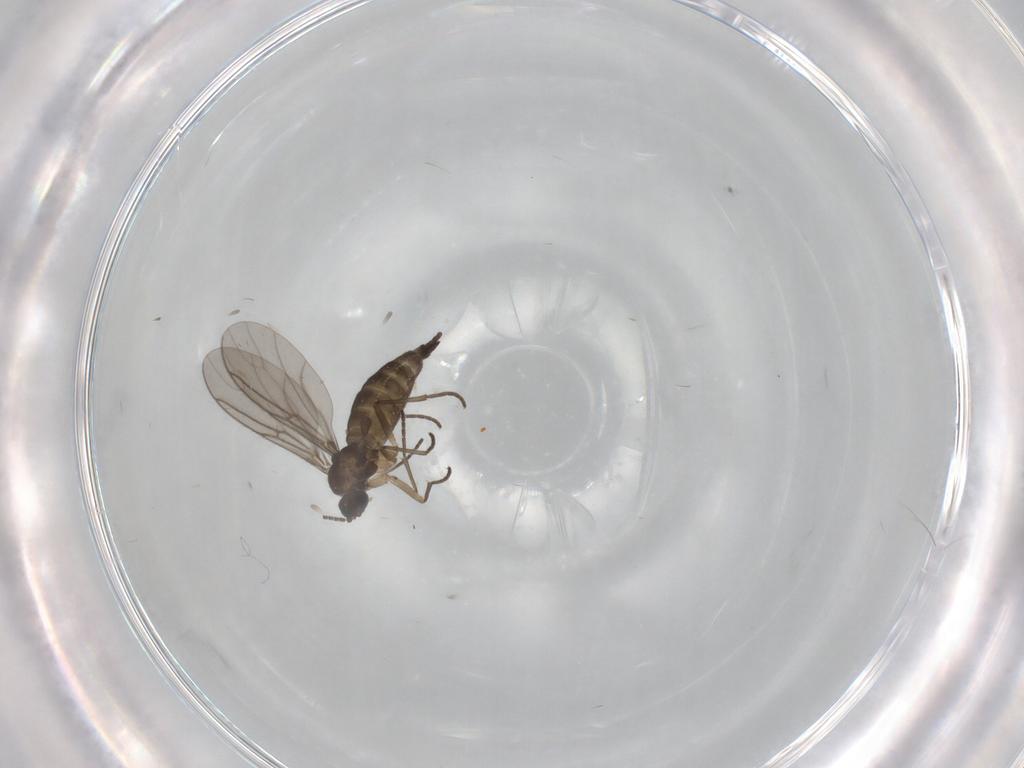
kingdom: Animalia
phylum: Arthropoda
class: Insecta
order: Diptera
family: Sciaridae
